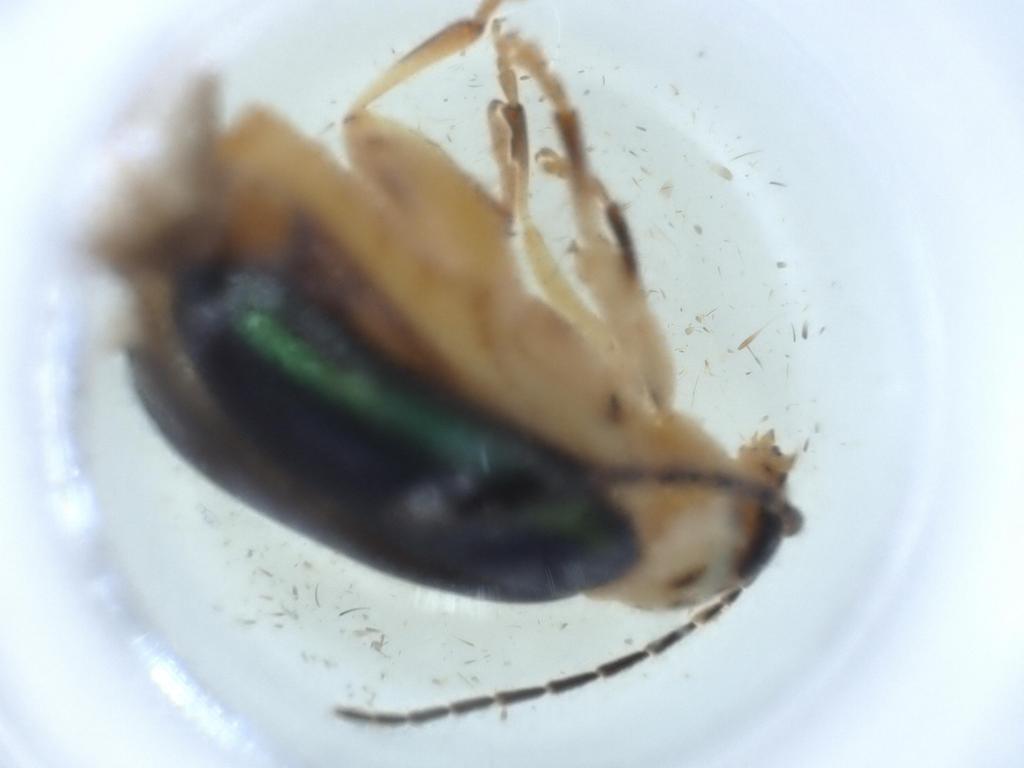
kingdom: Animalia
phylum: Arthropoda
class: Insecta
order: Coleoptera
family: Chrysomelidae
